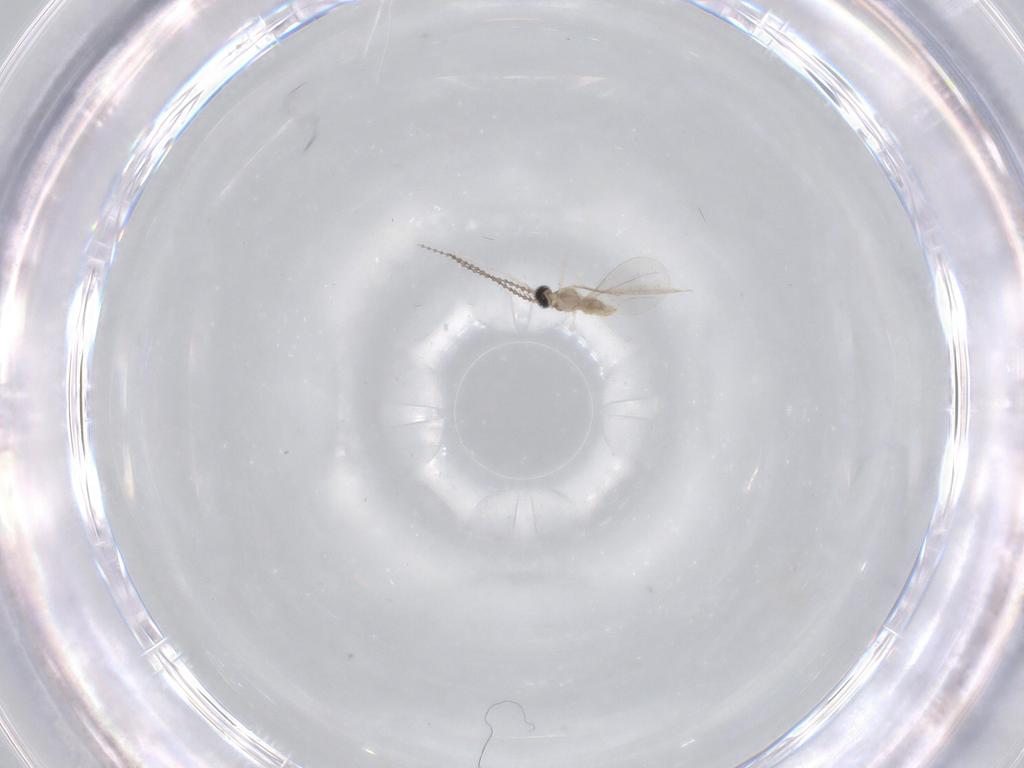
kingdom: Animalia
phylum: Arthropoda
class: Insecta
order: Diptera
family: Cecidomyiidae
